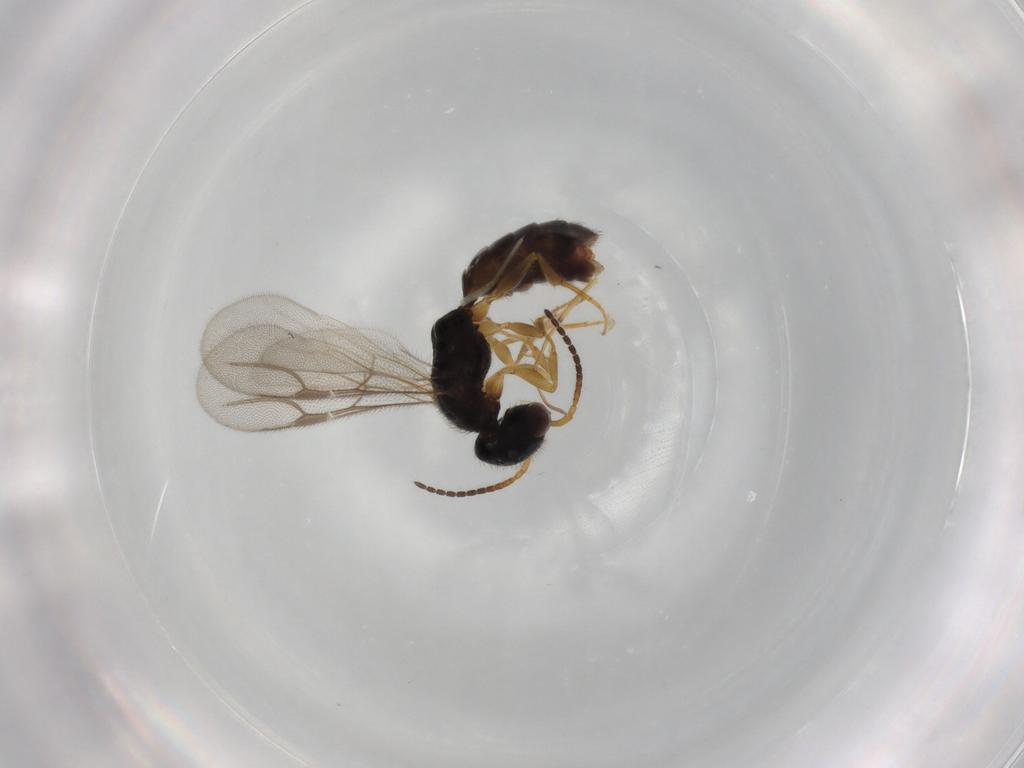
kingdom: Animalia
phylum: Arthropoda
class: Insecta
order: Hymenoptera
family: Bethylidae
